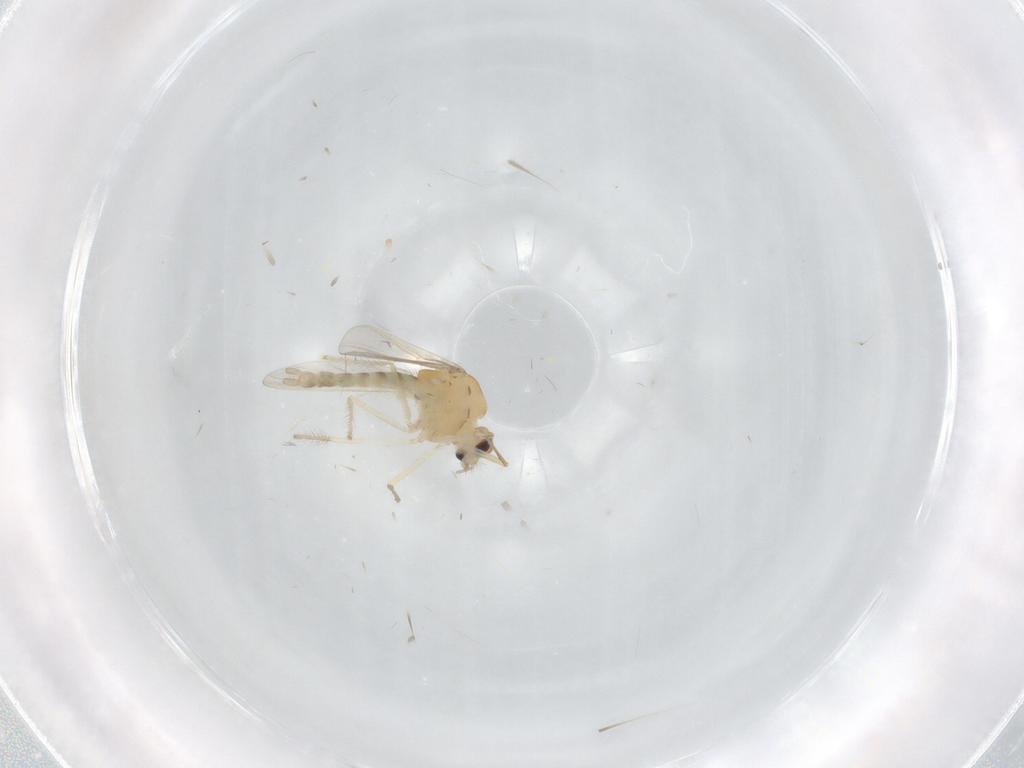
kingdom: Animalia
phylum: Arthropoda
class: Insecta
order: Diptera
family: Chironomidae
